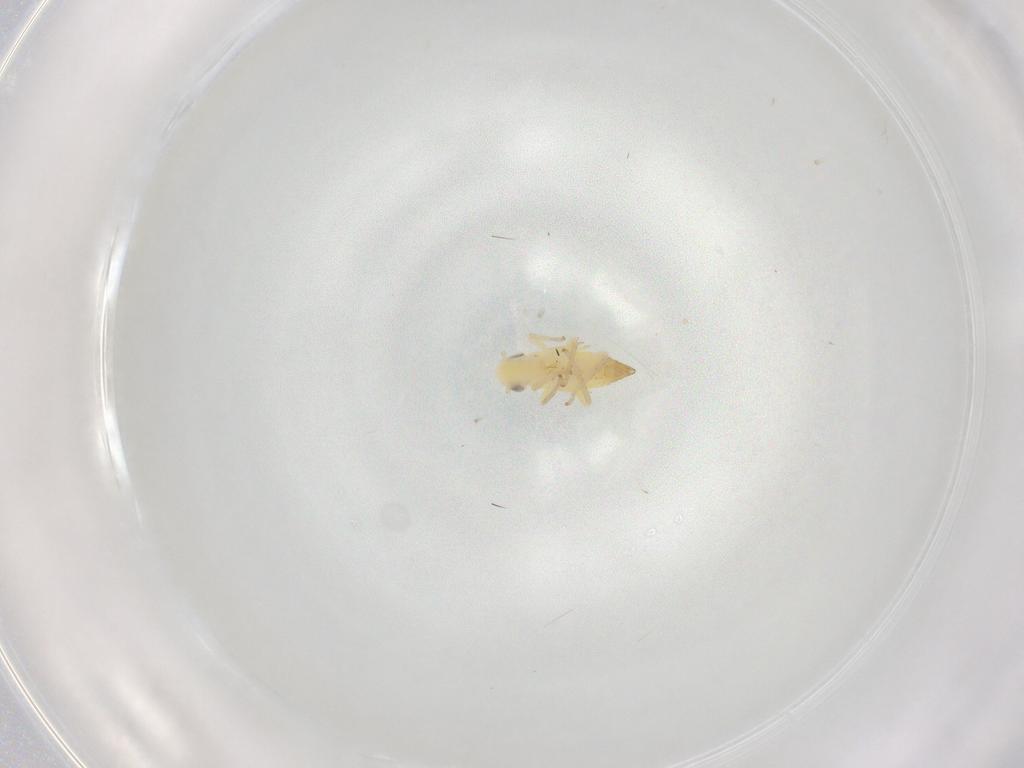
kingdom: Animalia
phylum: Arthropoda
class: Insecta
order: Hemiptera
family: Cicadellidae
